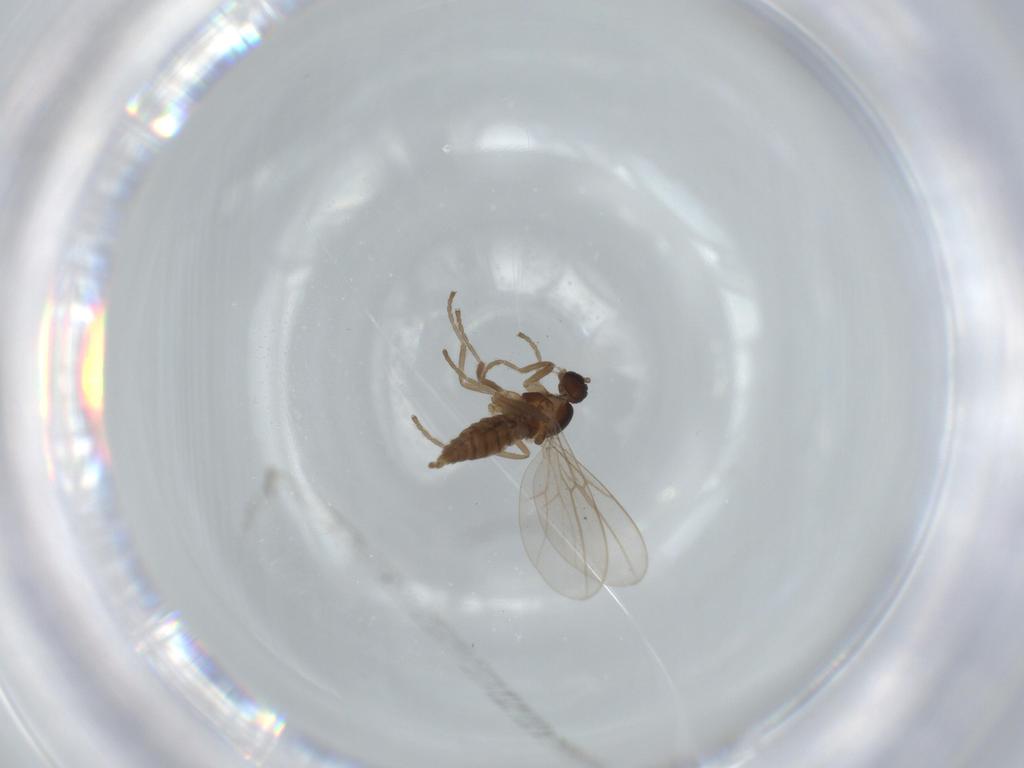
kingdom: Animalia
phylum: Arthropoda
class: Insecta
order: Diptera
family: Cecidomyiidae
